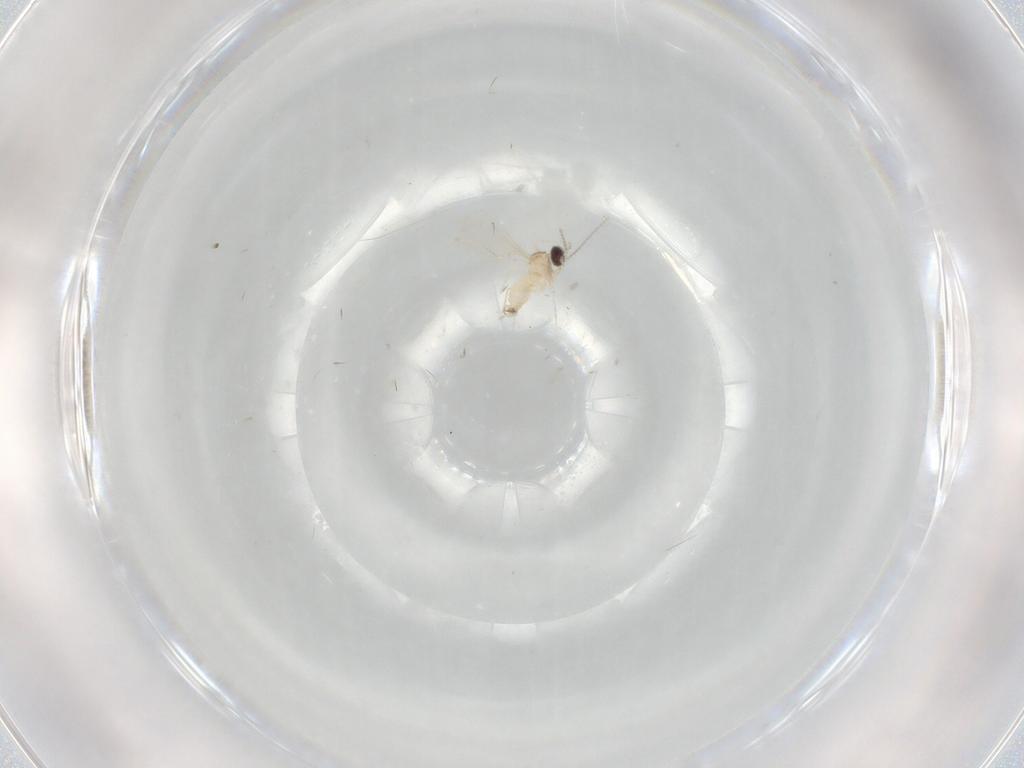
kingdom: Animalia
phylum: Arthropoda
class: Insecta
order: Diptera
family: Cecidomyiidae
